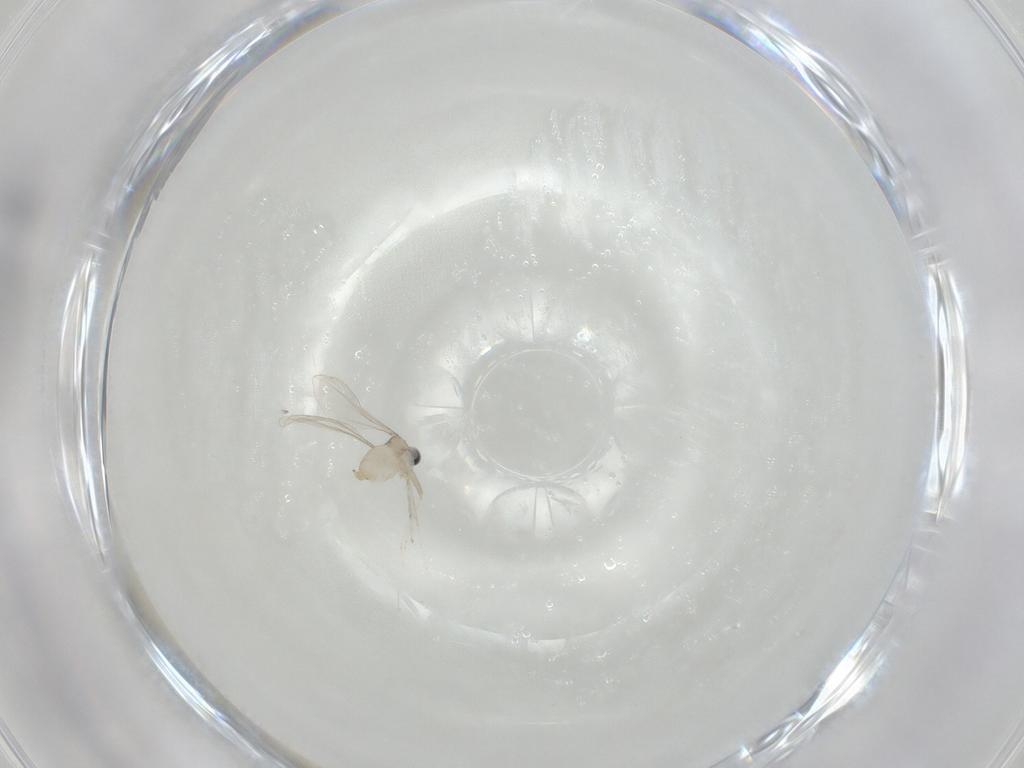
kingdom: Animalia
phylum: Arthropoda
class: Insecta
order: Diptera
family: Cecidomyiidae
